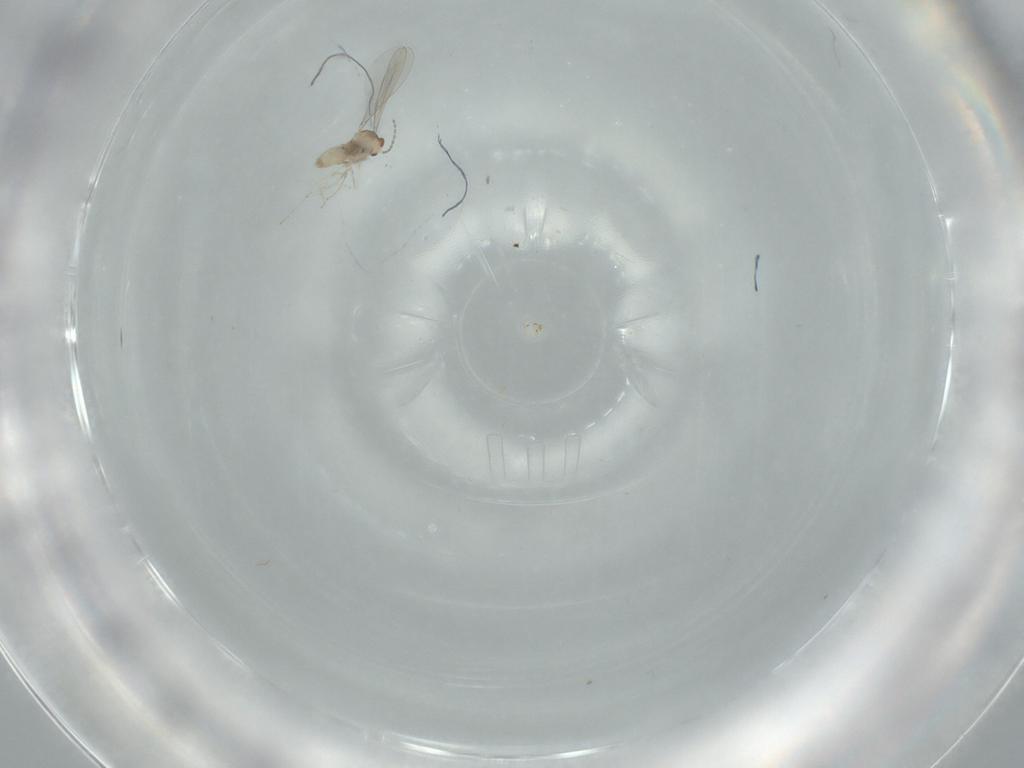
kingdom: Animalia
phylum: Arthropoda
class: Insecta
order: Diptera
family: Cecidomyiidae
